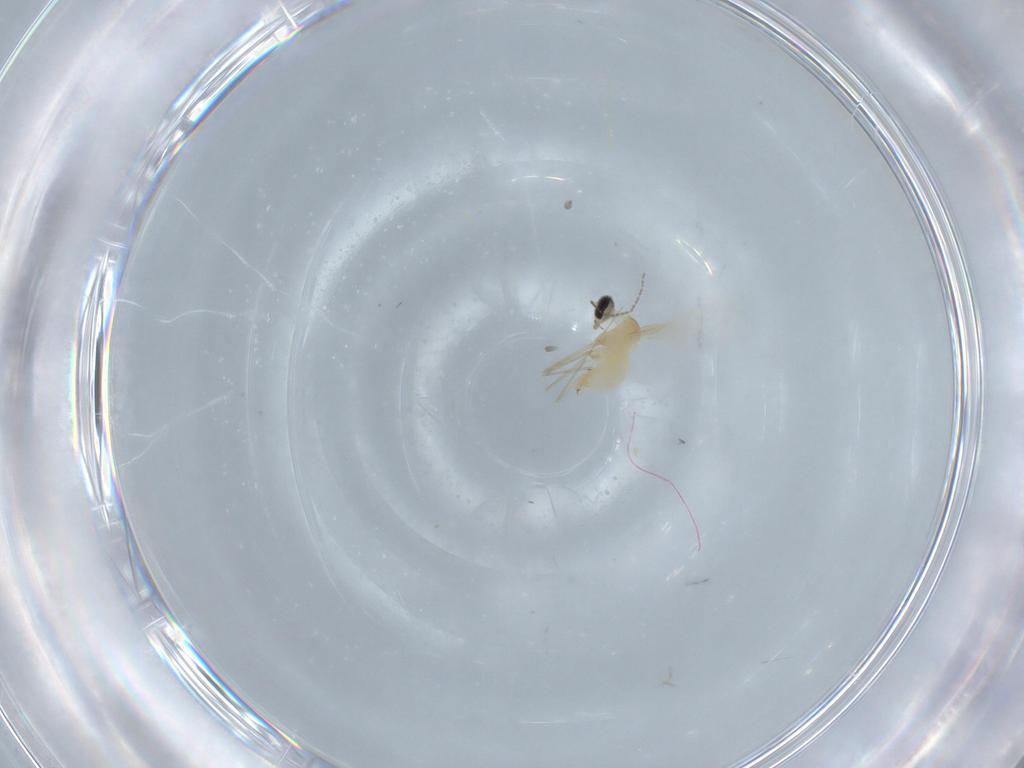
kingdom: Animalia
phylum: Arthropoda
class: Insecta
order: Diptera
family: Cecidomyiidae
